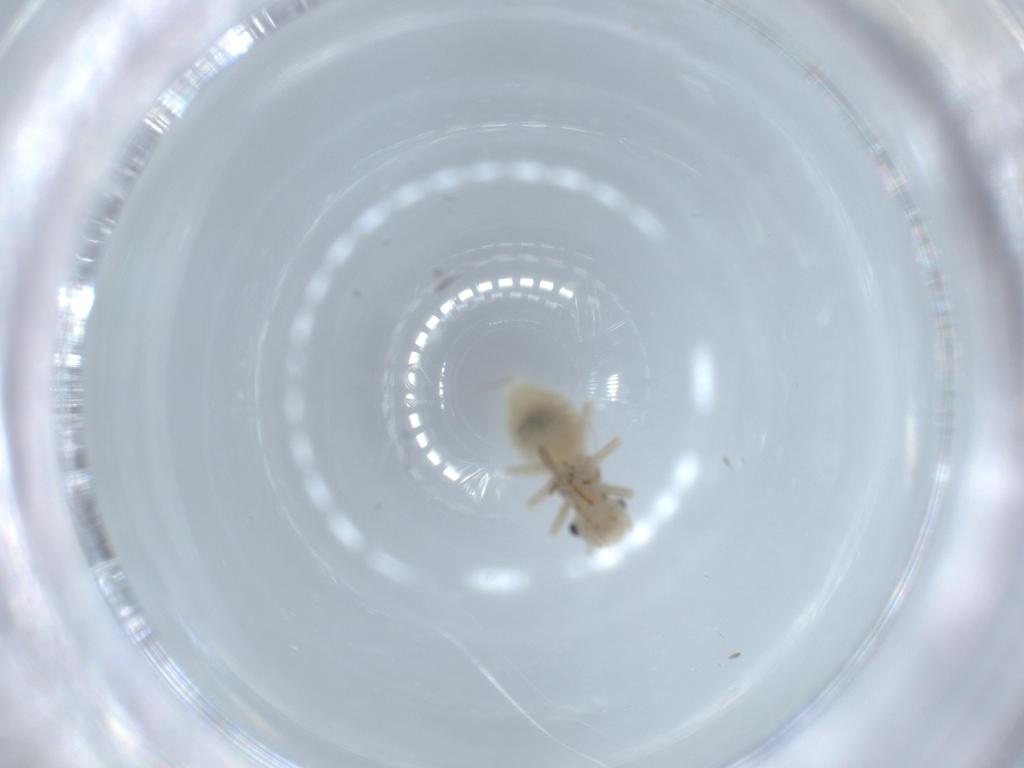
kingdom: Animalia
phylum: Arthropoda
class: Insecta
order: Psocodea
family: Amphipsocidae
